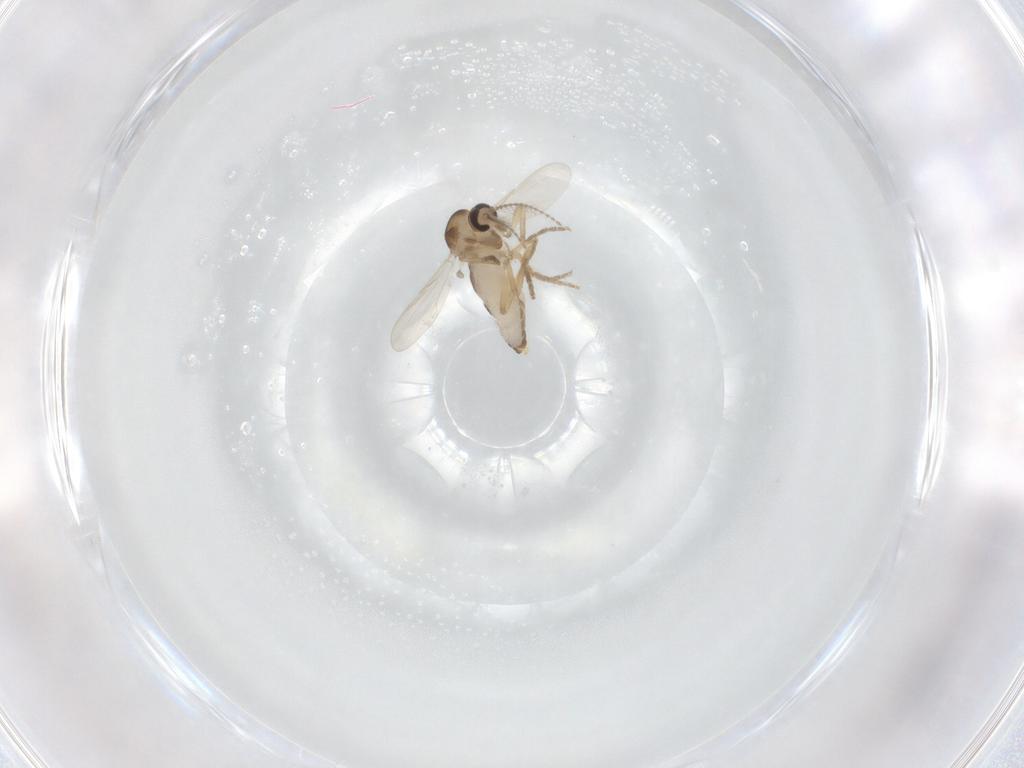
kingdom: Animalia
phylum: Arthropoda
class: Insecta
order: Diptera
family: Ceratopogonidae
